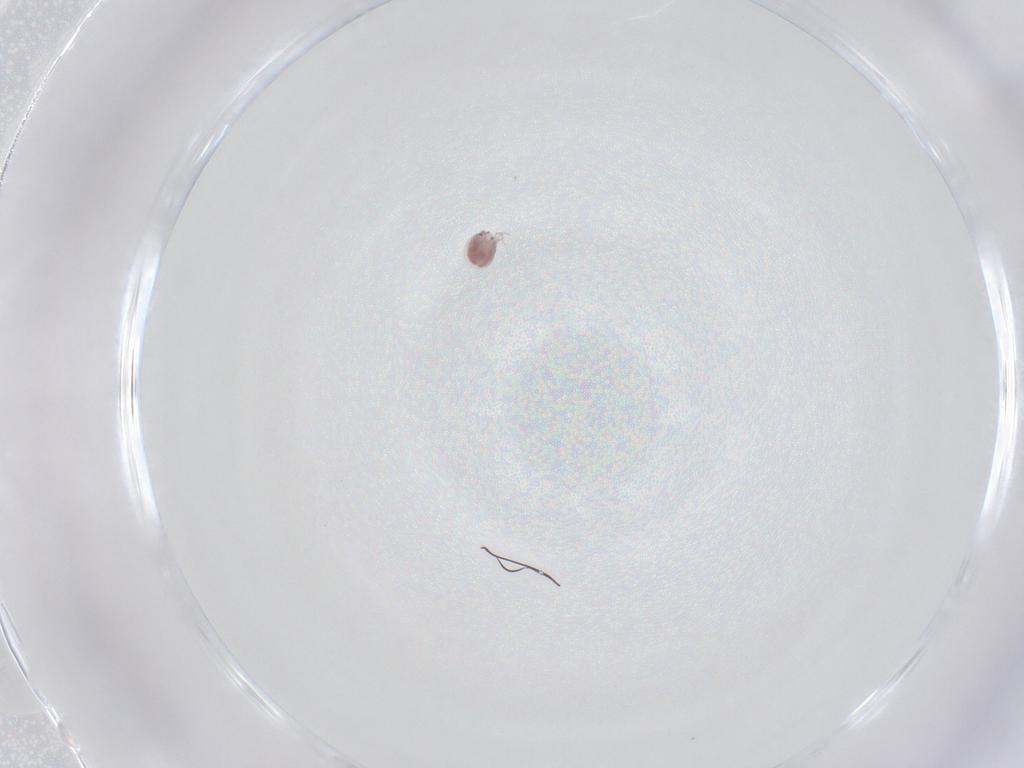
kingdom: Animalia
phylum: Arthropoda
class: Arachnida
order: Trombidiformes
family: Pionidae
